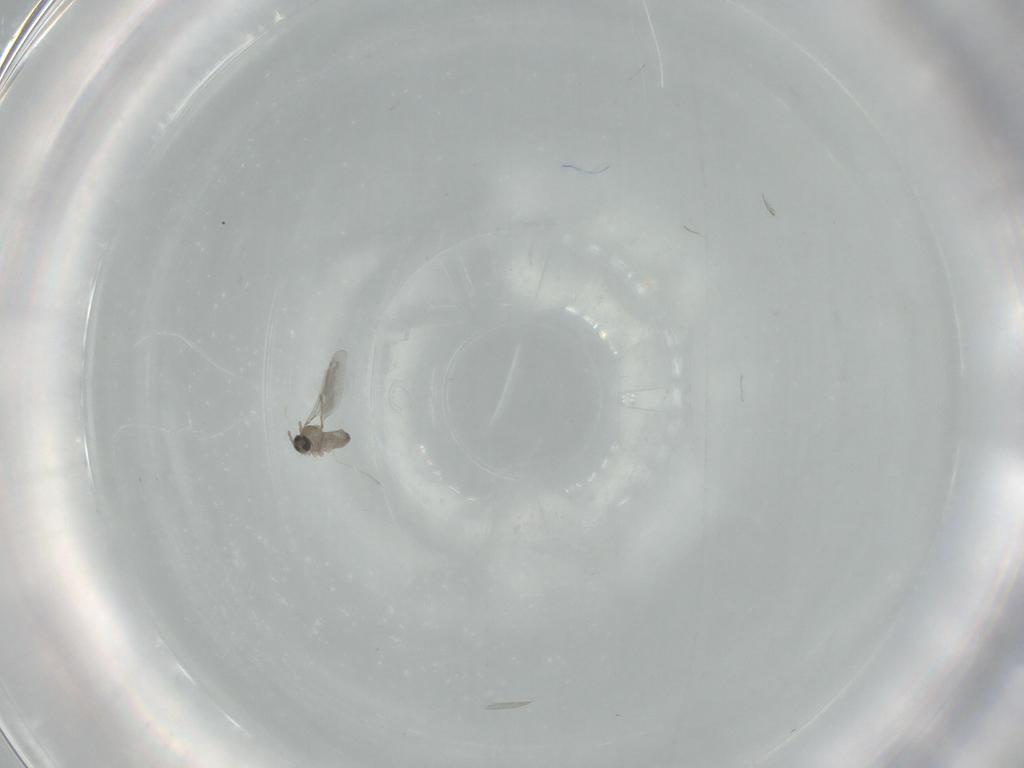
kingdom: Animalia
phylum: Arthropoda
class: Insecta
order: Diptera
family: Cecidomyiidae
